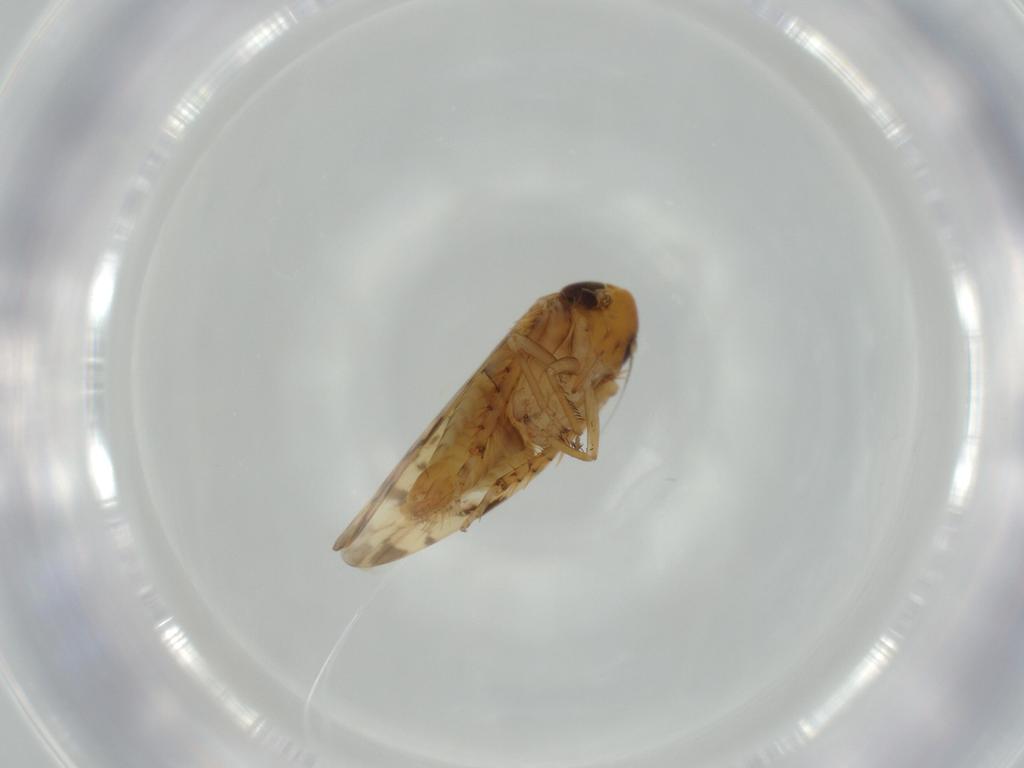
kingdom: Animalia
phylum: Arthropoda
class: Insecta
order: Hemiptera
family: Cicadellidae
